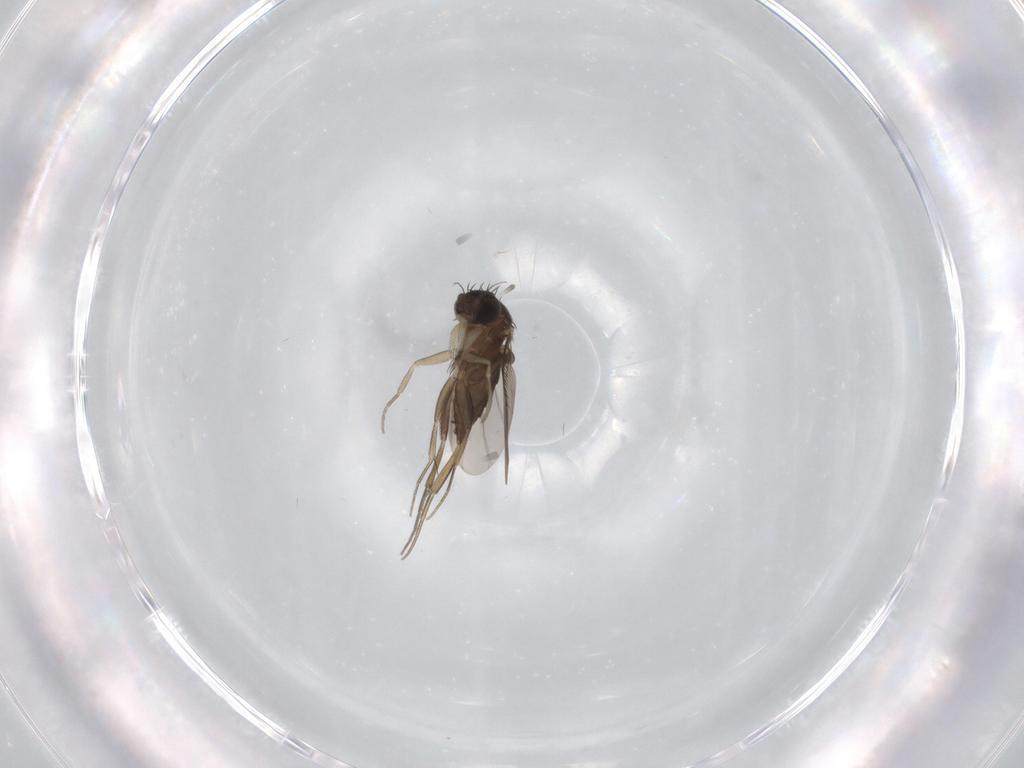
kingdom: Animalia
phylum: Arthropoda
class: Insecta
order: Diptera
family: Phoridae
